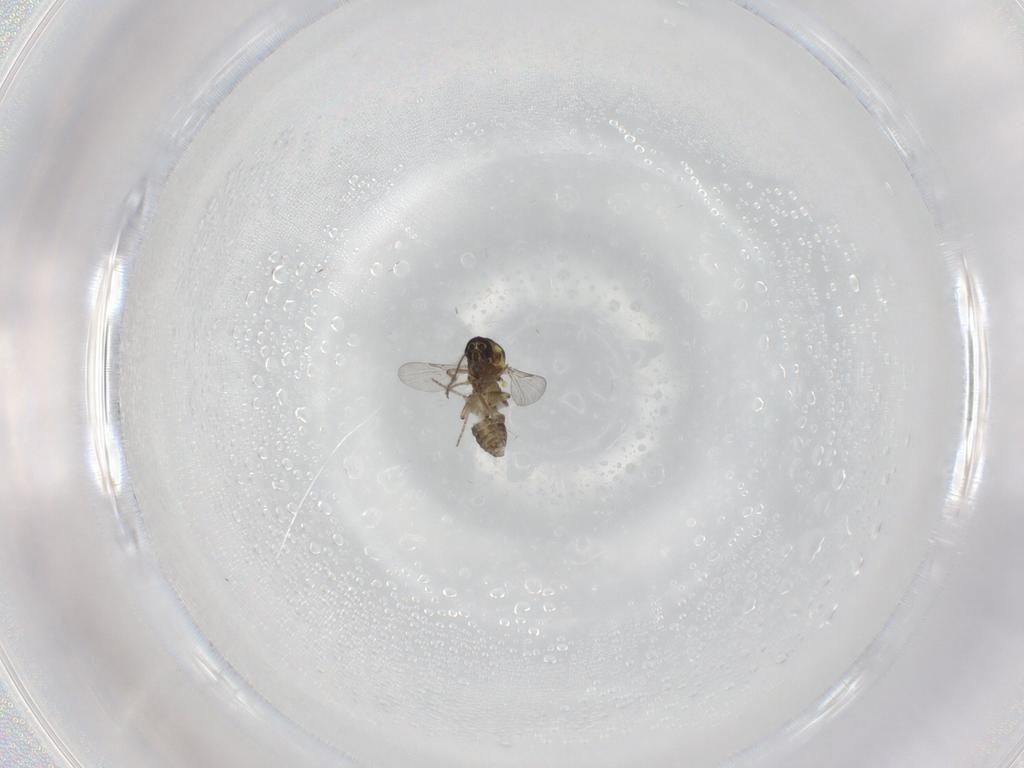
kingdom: Animalia
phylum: Arthropoda
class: Insecta
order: Diptera
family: Ceratopogonidae
